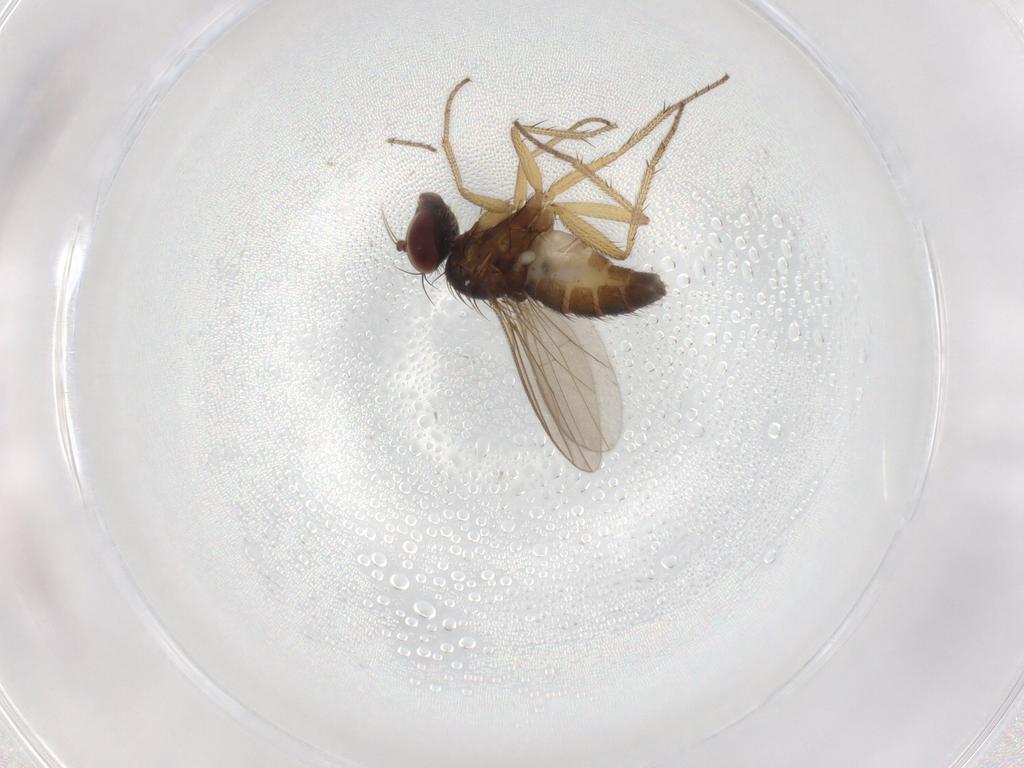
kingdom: Animalia
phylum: Arthropoda
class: Insecta
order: Diptera
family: Dolichopodidae
